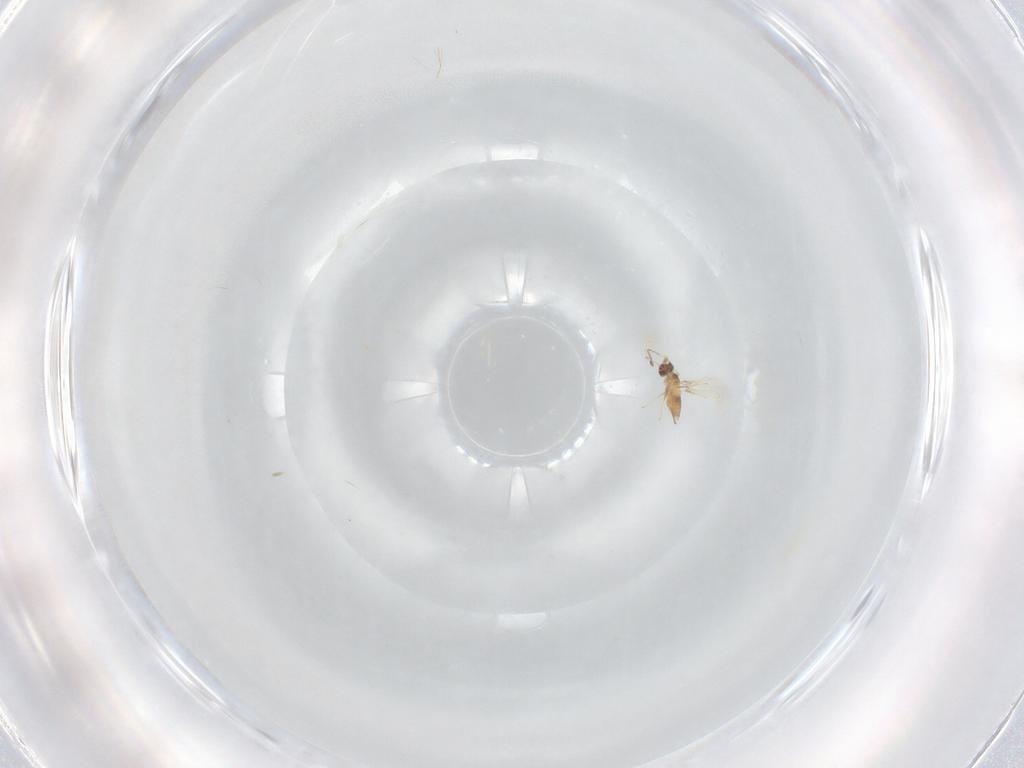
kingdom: Animalia
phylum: Arthropoda
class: Insecta
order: Hymenoptera
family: Mymaridae
